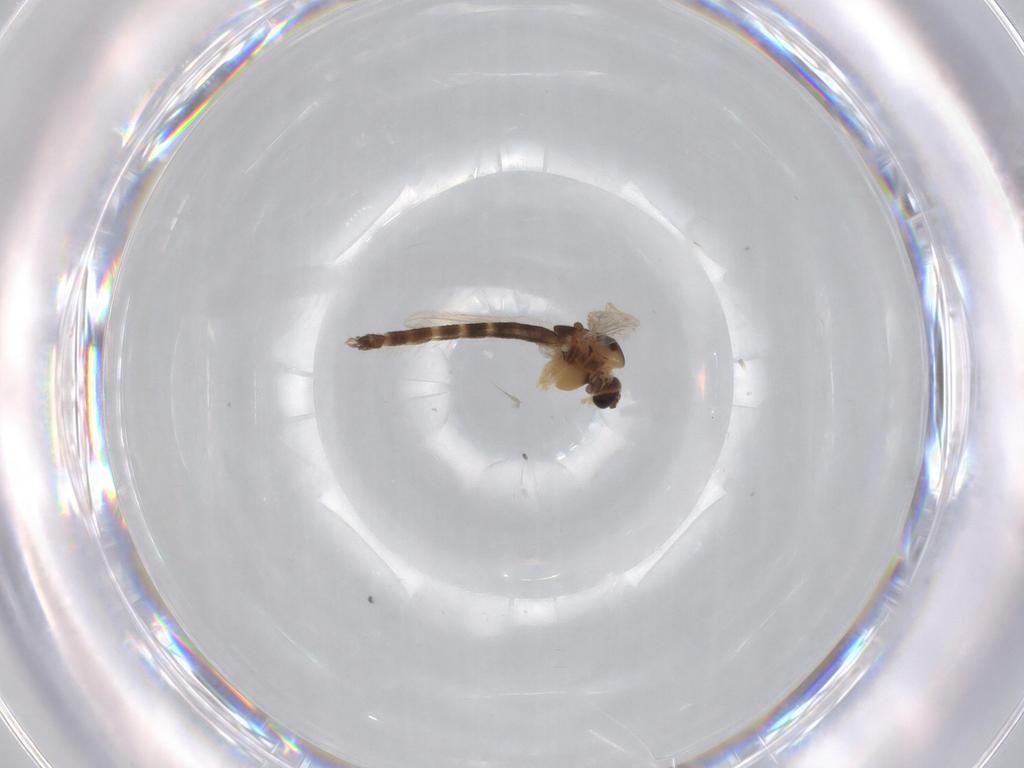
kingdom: Animalia
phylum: Arthropoda
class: Insecta
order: Diptera
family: Chironomidae
